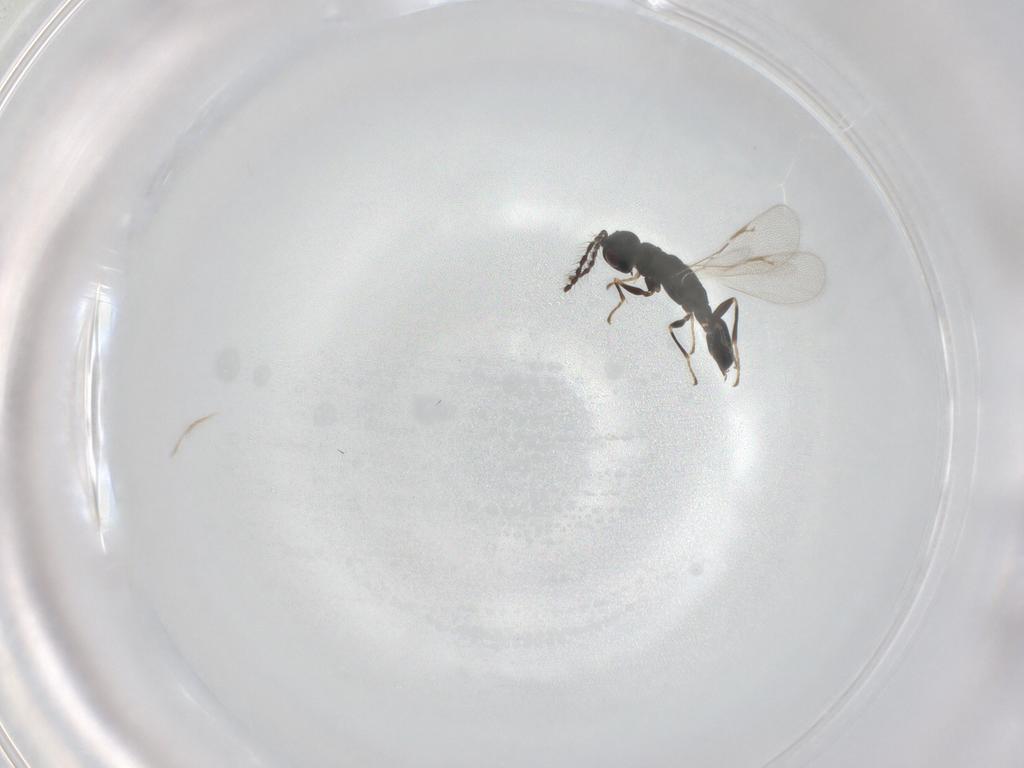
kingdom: Animalia
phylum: Arthropoda
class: Insecta
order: Hymenoptera
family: Eurytomidae
